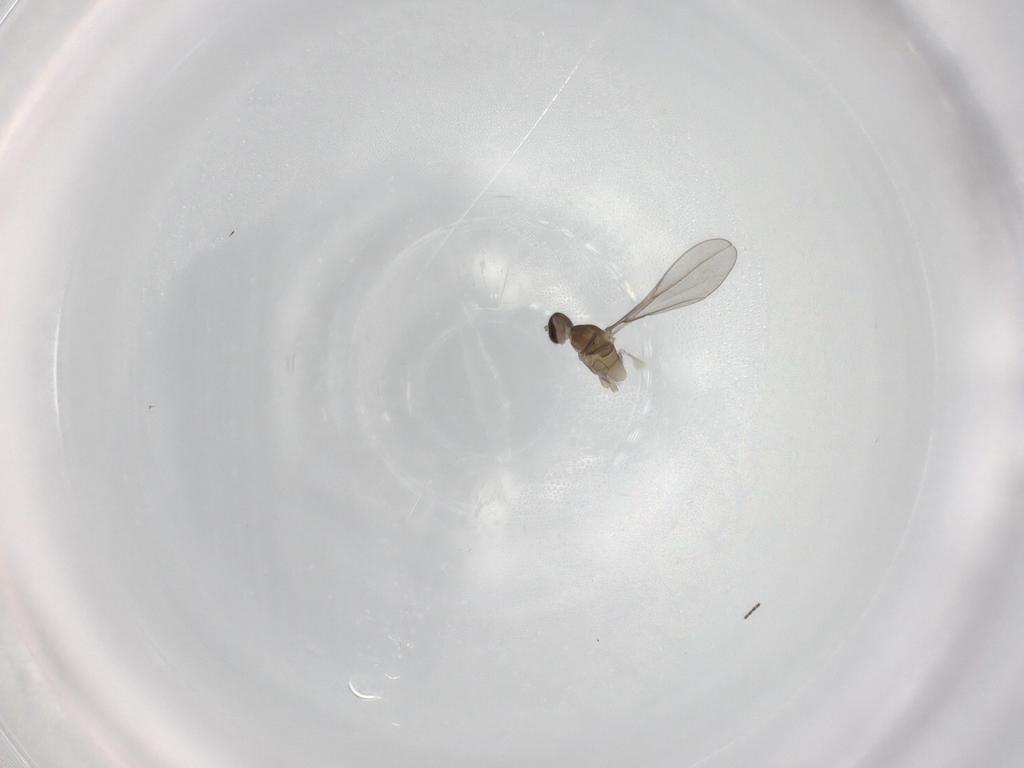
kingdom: Animalia
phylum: Arthropoda
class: Insecta
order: Diptera
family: Cecidomyiidae
